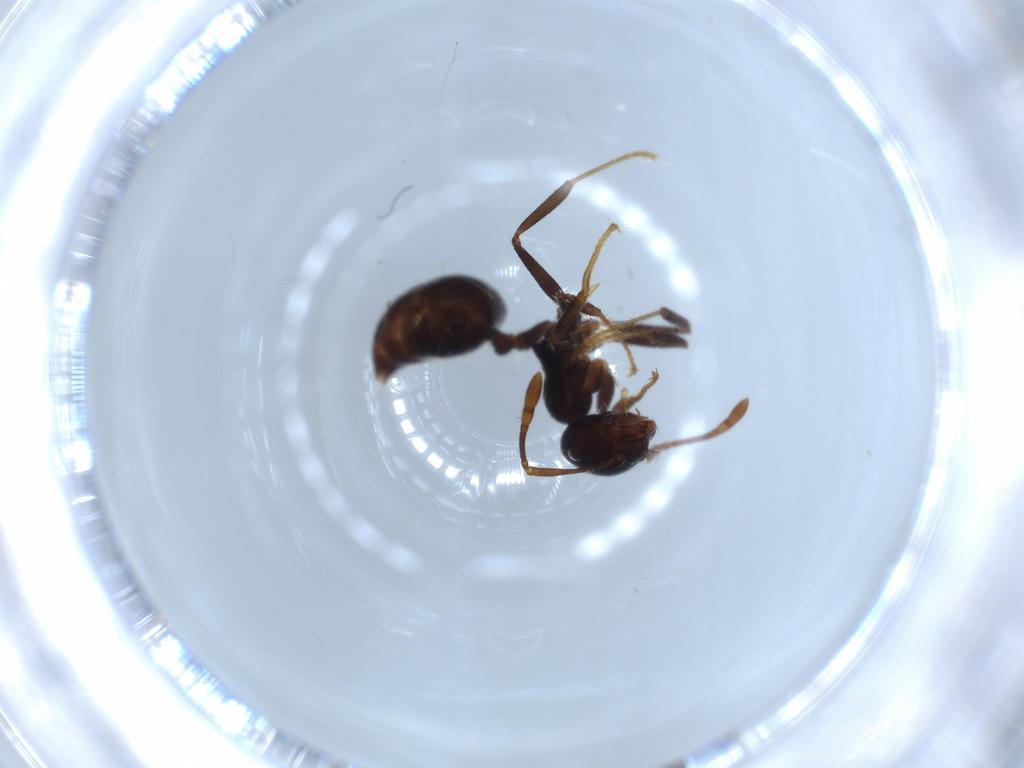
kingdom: Animalia
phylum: Arthropoda
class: Insecta
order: Hymenoptera
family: Formicidae
